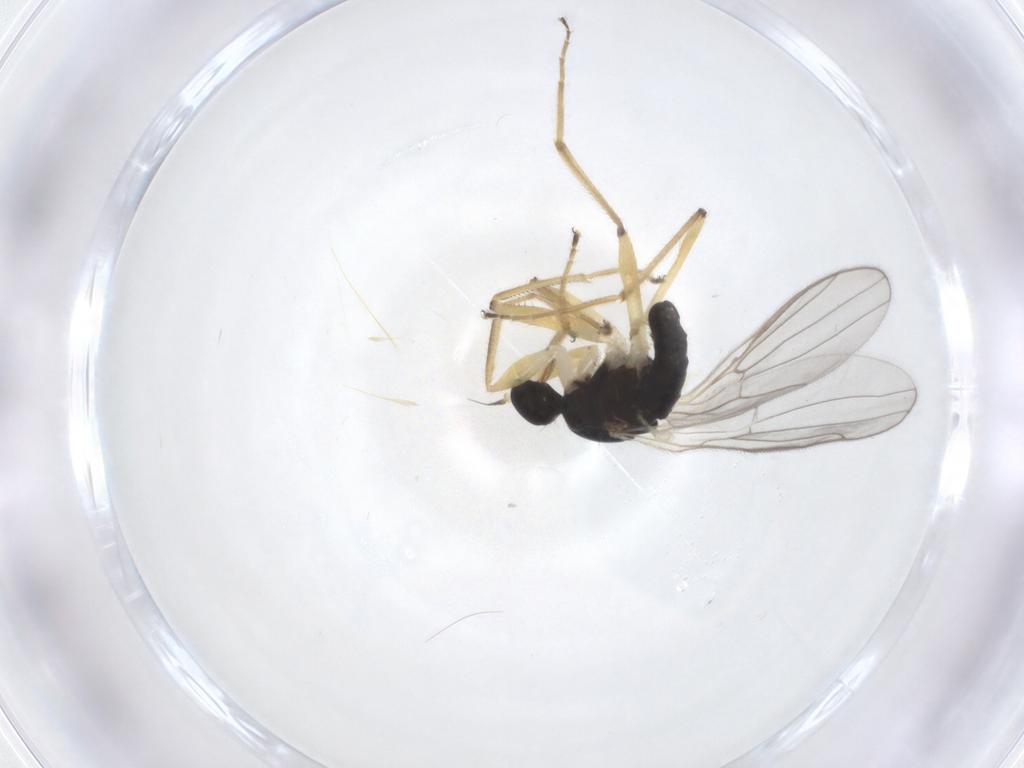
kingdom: Animalia
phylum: Arthropoda
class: Insecta
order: Diptera
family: Hybotidae
